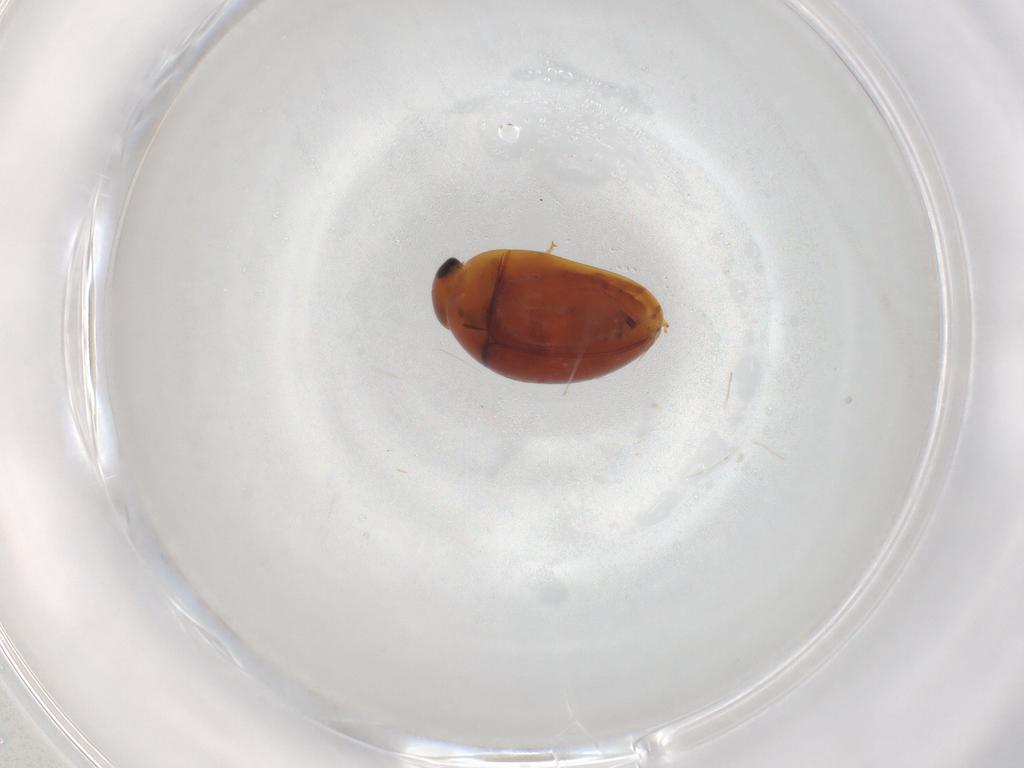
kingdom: Animalia
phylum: Arthropoda
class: Insecta
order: Coleoptera
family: Phalacridae
